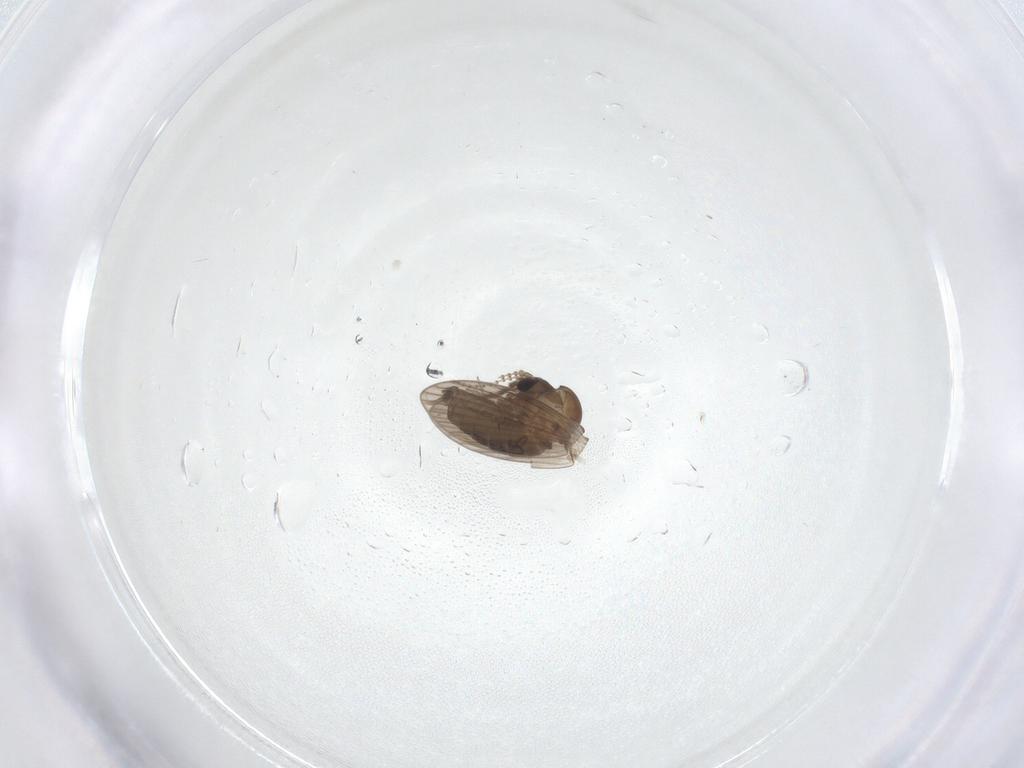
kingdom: Animalia
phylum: Arthropoda
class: Insecta
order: Diptera
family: Psychodidae
